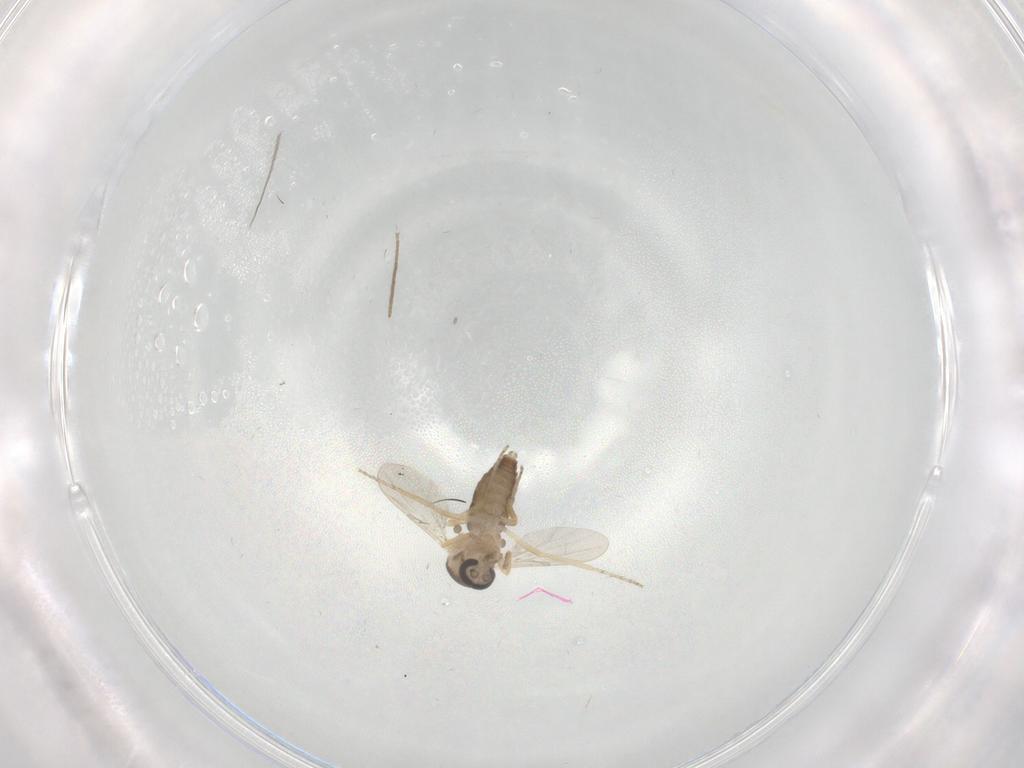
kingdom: Animalia
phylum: Arthropoda
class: Insecta
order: Diptera
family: Ceratopogonidae
